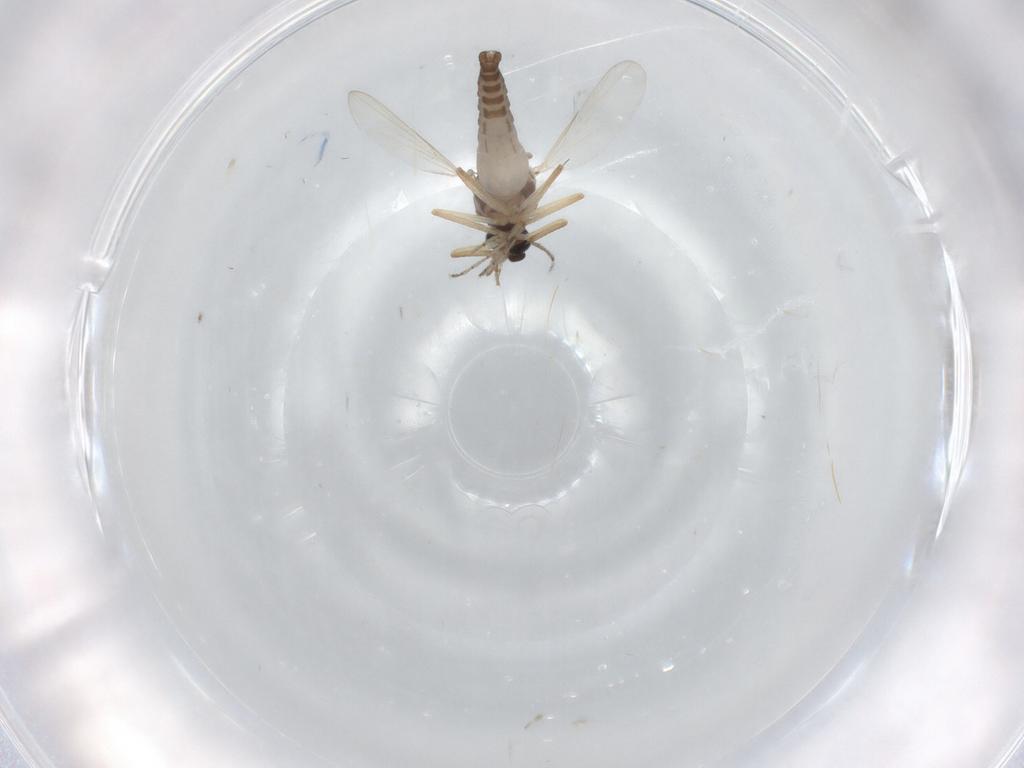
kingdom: Animalia
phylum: Arthropoda
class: Insecta
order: Diptera
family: Ceratopogonidae
